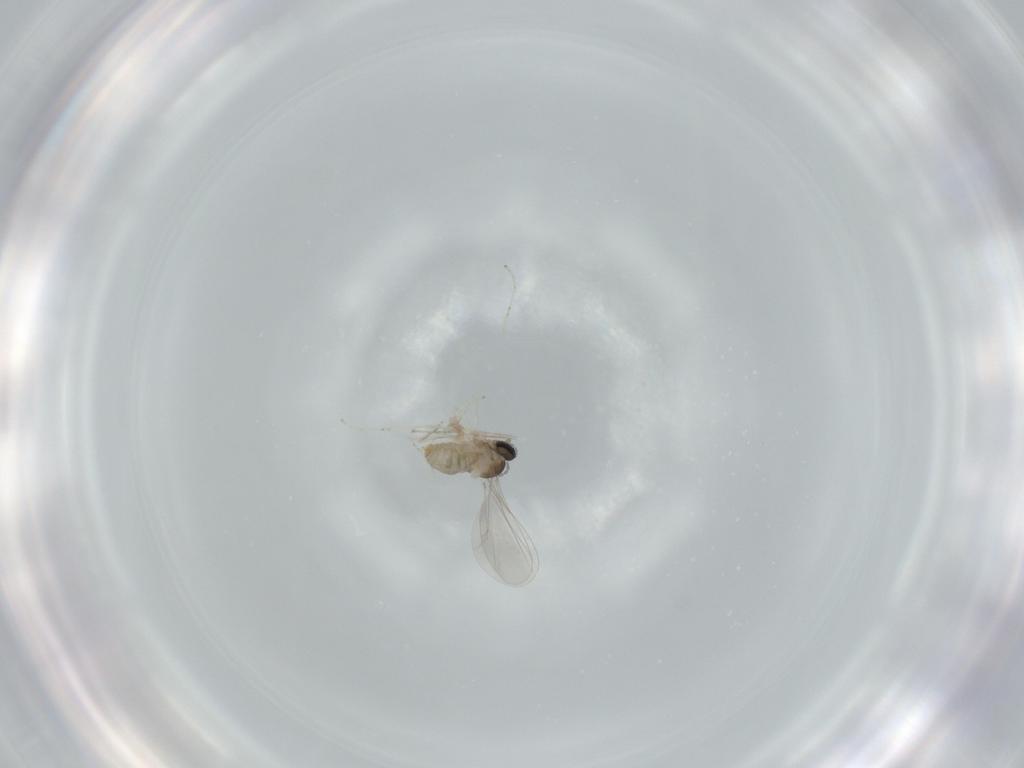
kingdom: Animalia
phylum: Arthropoda
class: Insecta
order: Diptera
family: Cecidomyiidae
